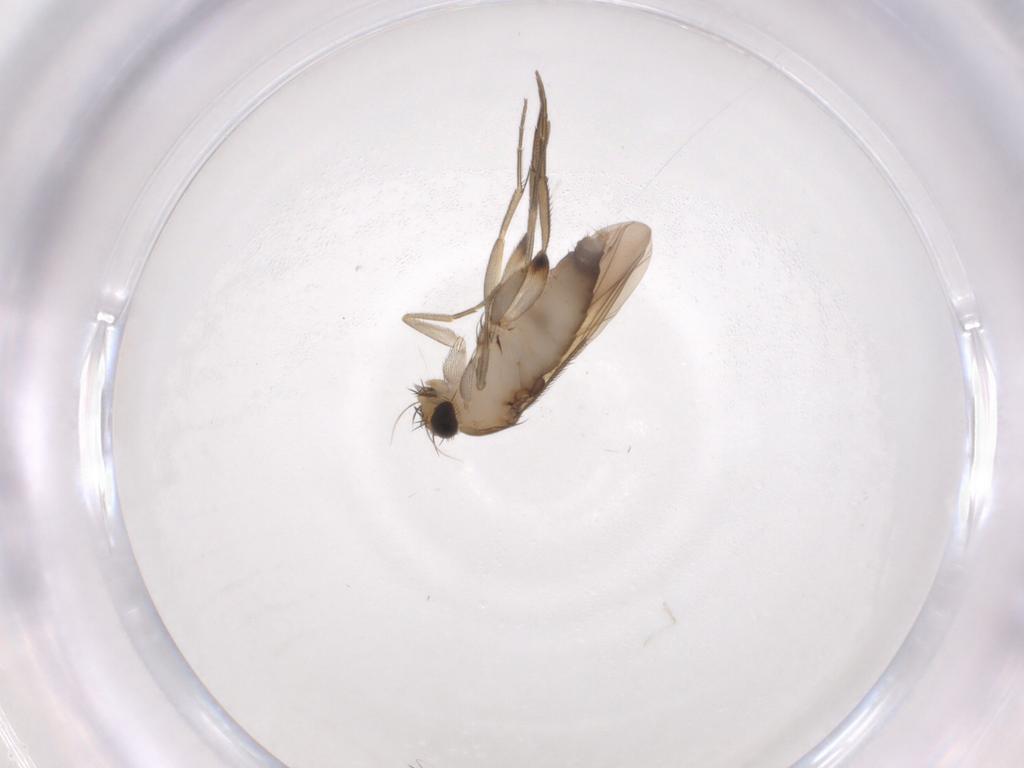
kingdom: Animalia
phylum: Arthropoda
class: Insecta
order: Diptera
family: Phoridae
